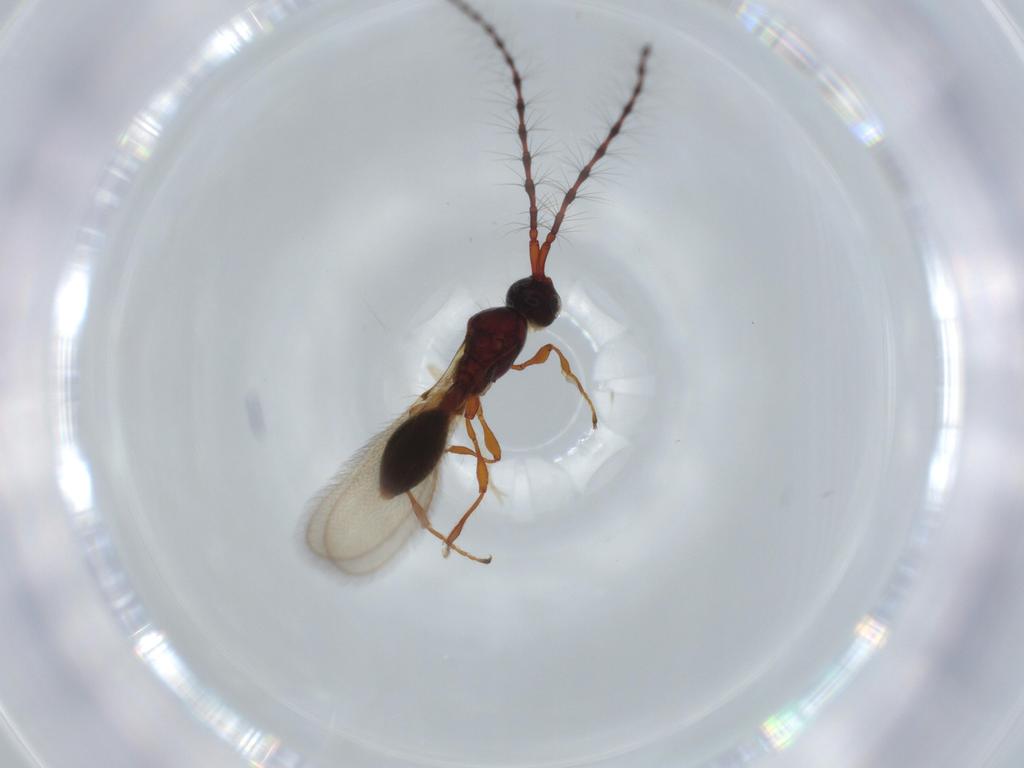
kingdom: Animalia
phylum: Arthropoda
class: Insecta
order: Hymenoptera
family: Diapriidae
